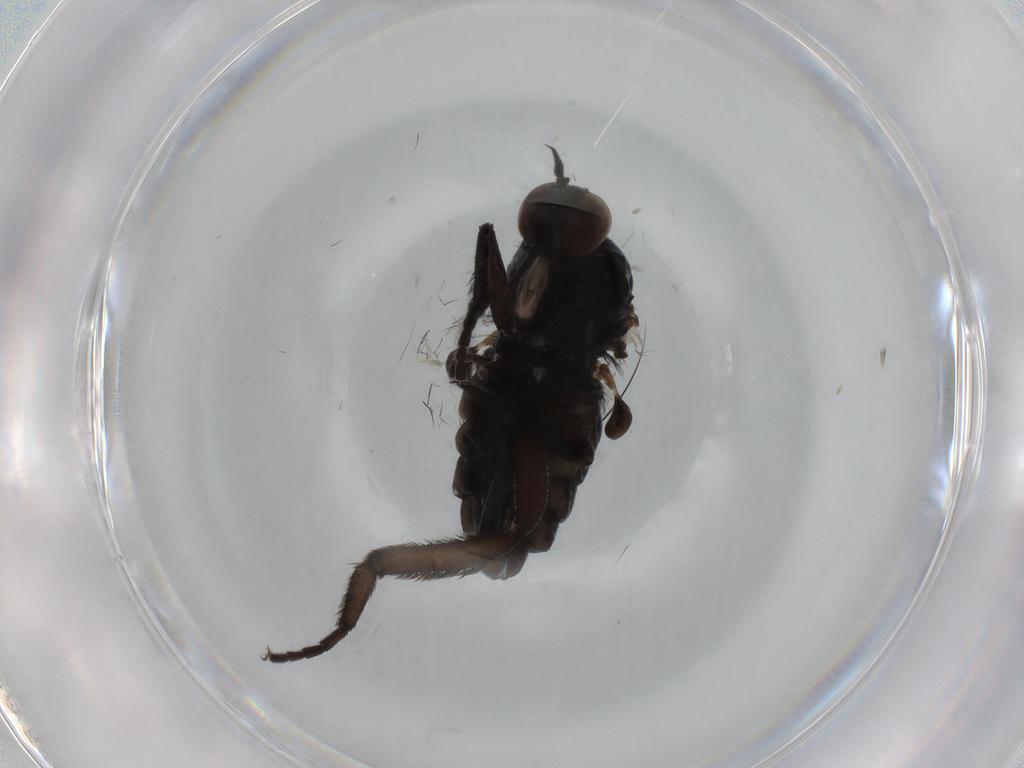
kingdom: Animalia
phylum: Arthropoda
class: Insecta
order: Diptera
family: Empididae
